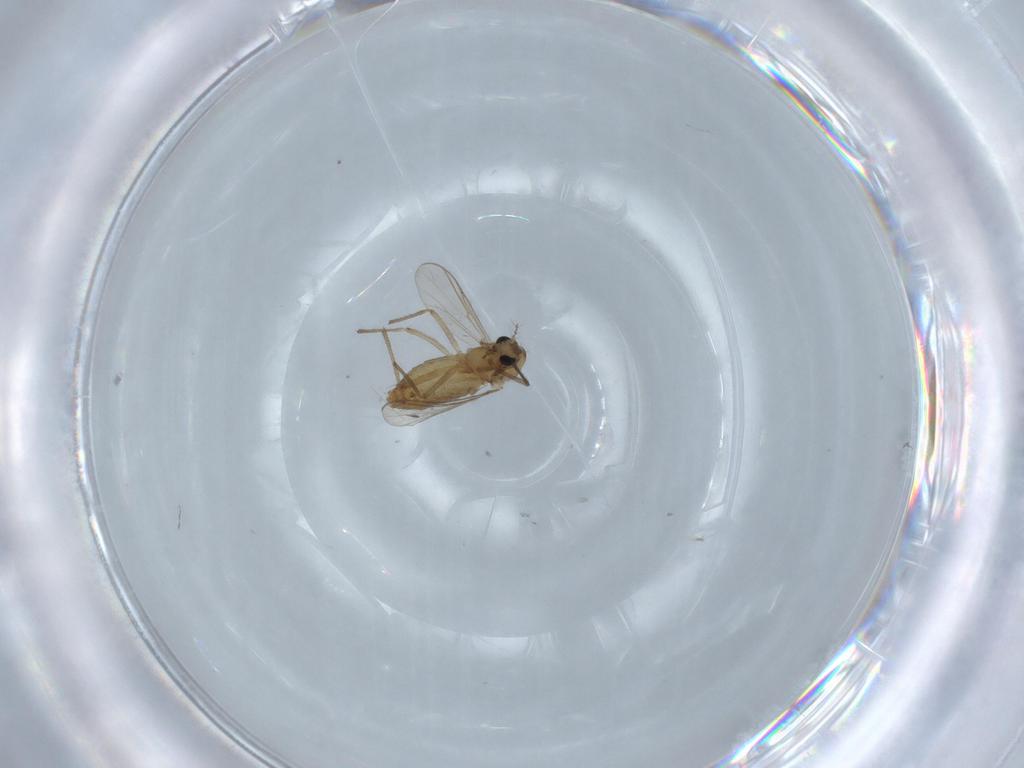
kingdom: Animalia
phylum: Arthropoda
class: Insecta
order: Diptera
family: Chironomidae
